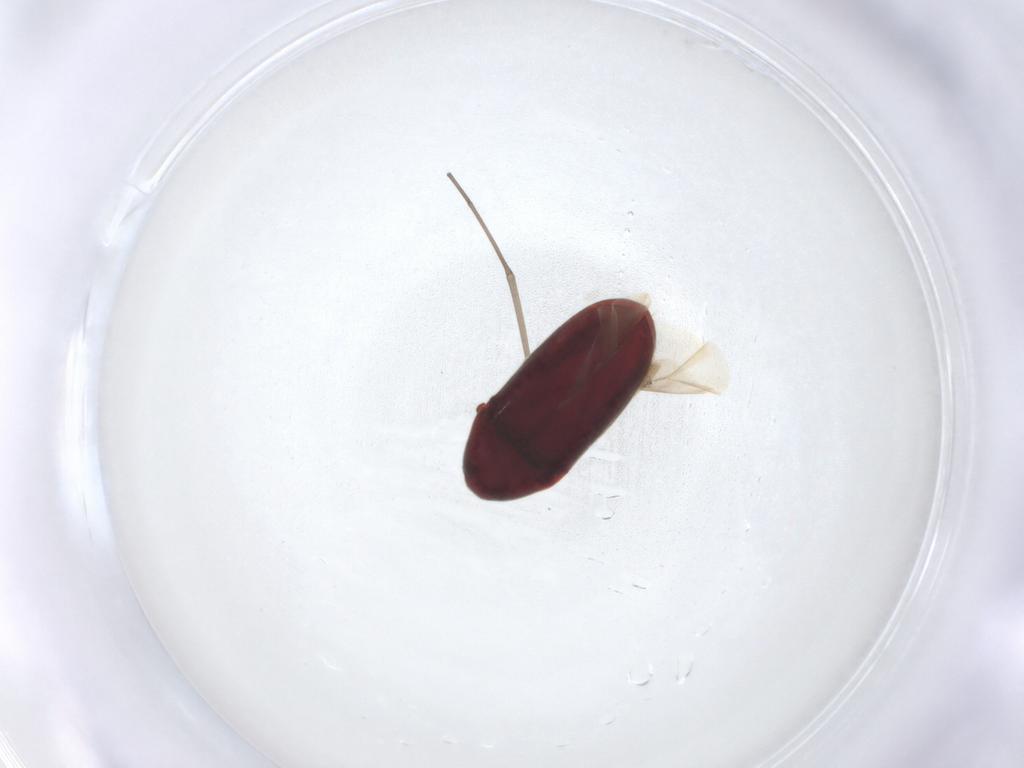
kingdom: Animalia
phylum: Arthropoda
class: Insecta
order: Coleoptera
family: Throscidae
